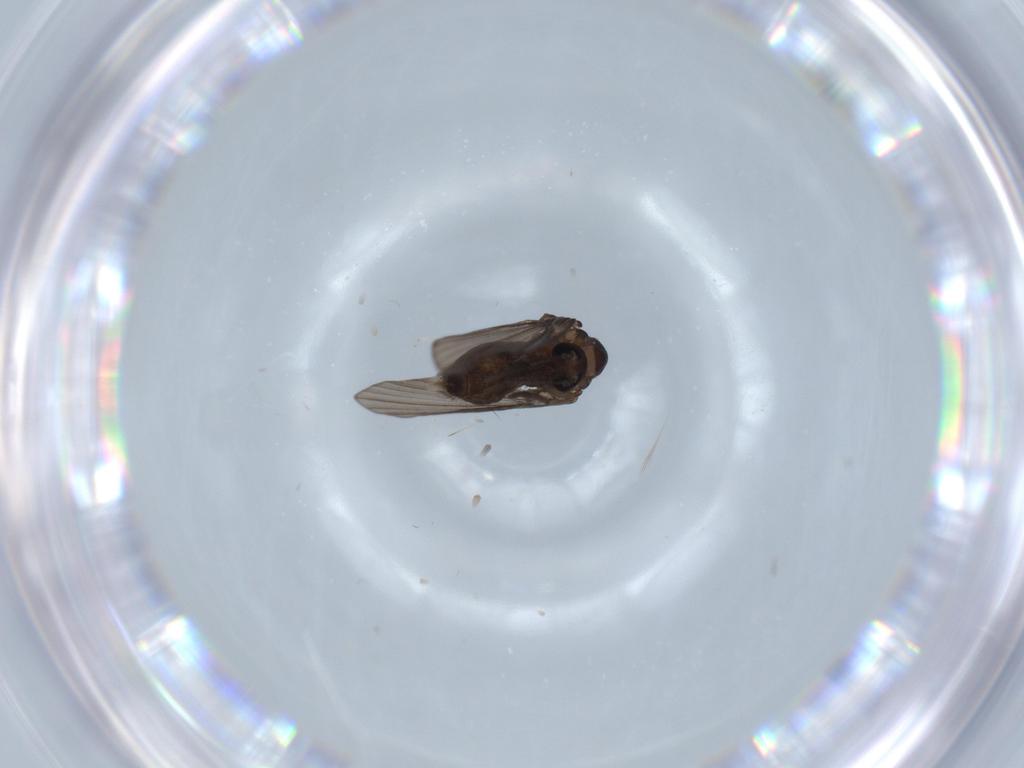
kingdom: Animalia
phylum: Arthropoda
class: Insecta
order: Diptera
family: Psychodidae
